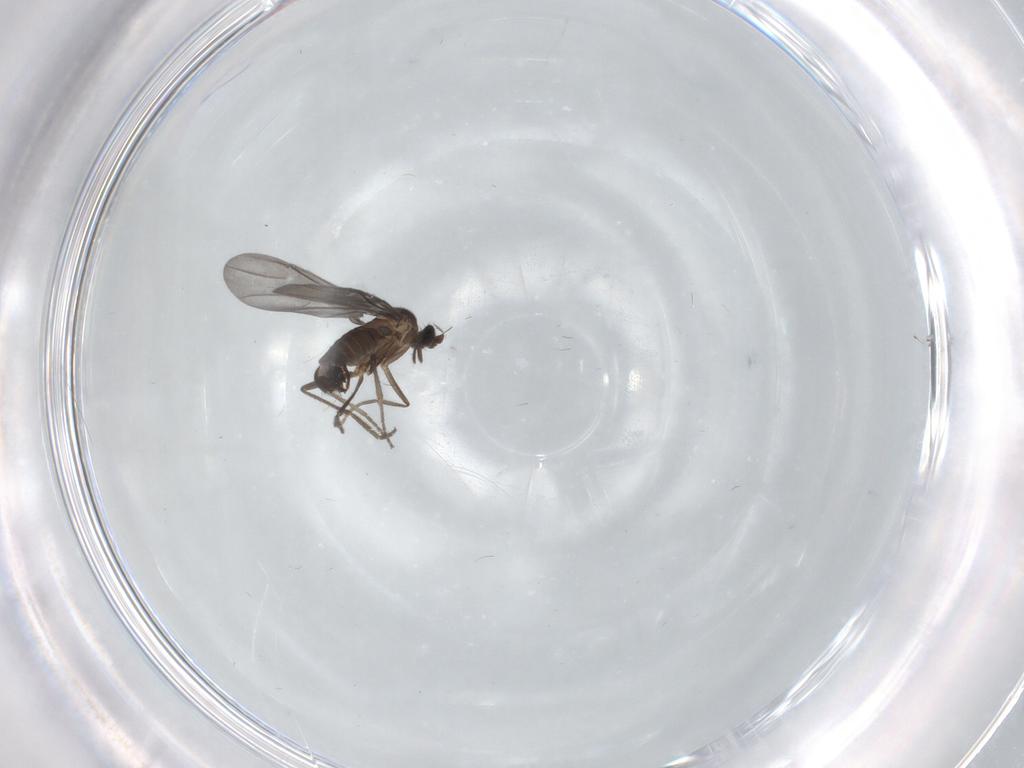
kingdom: Animalia
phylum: Arthropoda
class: Insecta
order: Diptera
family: Phoridae
